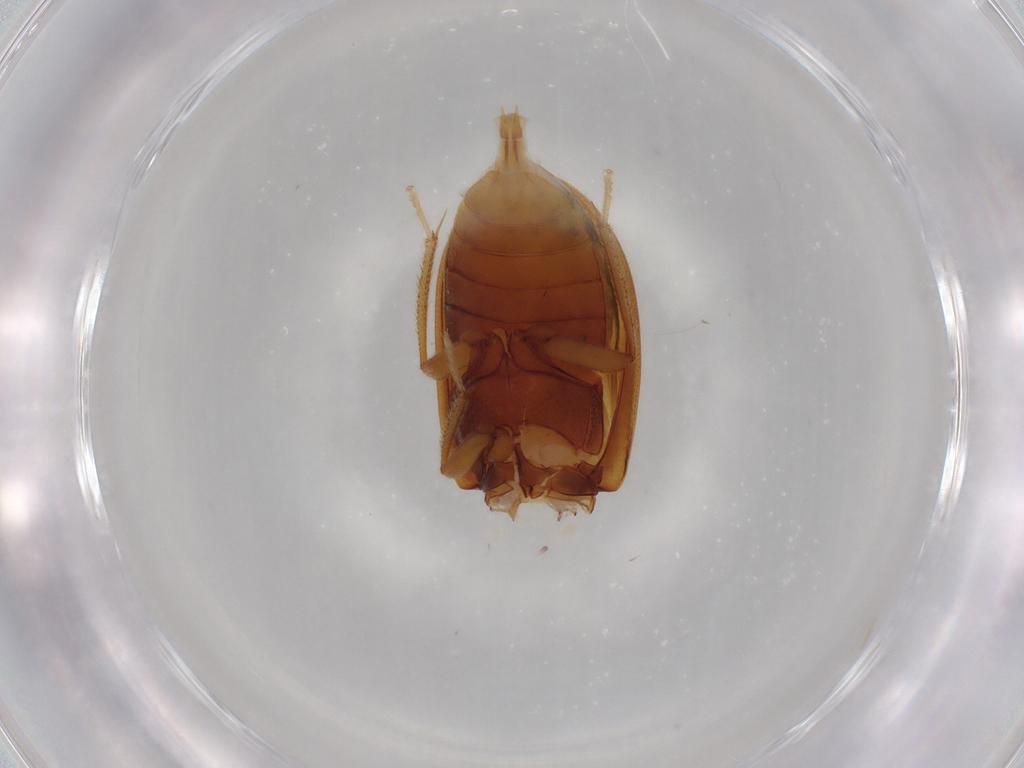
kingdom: Animalia
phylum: Arthropoda
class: Insecta
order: Coleoptera
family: Ptilodactylidae
